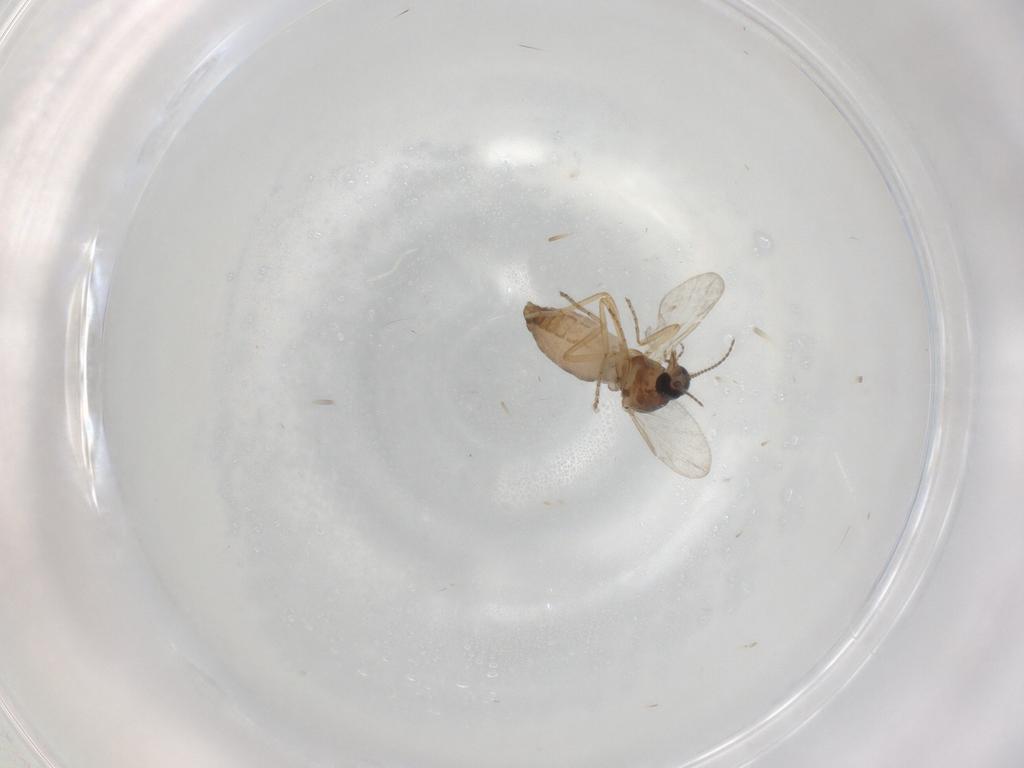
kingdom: Animalia
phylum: Arthropoda
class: Insecta
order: Diptera
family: Ceratopogonidae
